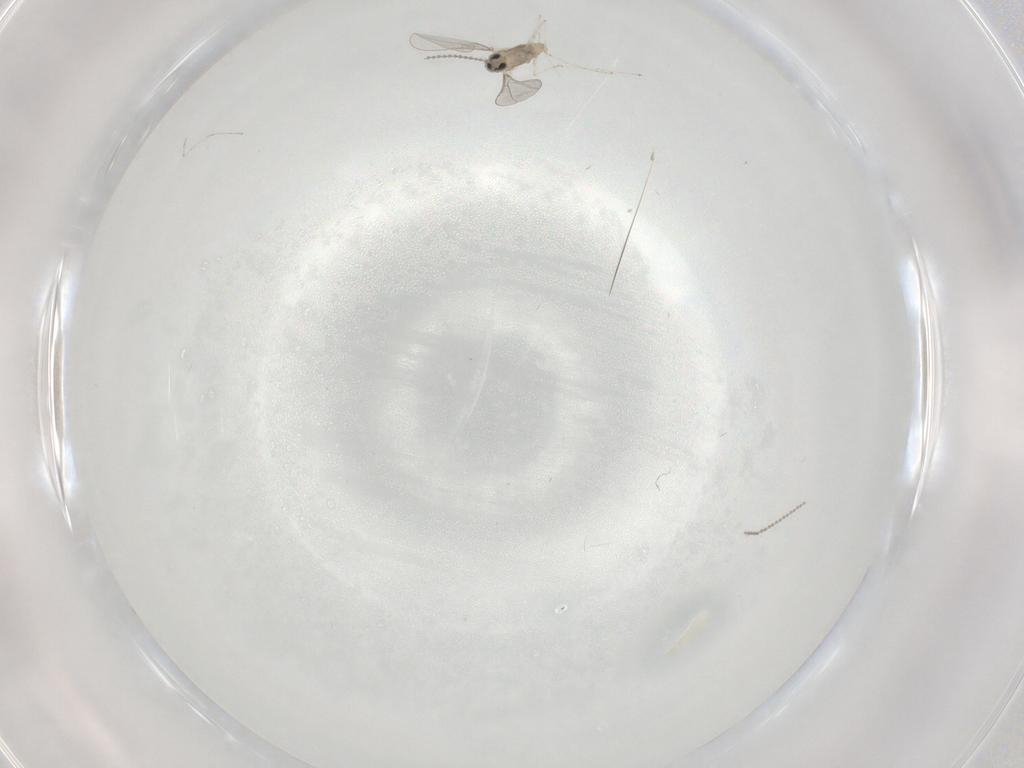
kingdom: Animalia
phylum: Arthropoda
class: Insecta
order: Diptera
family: Ceratopogonidae
